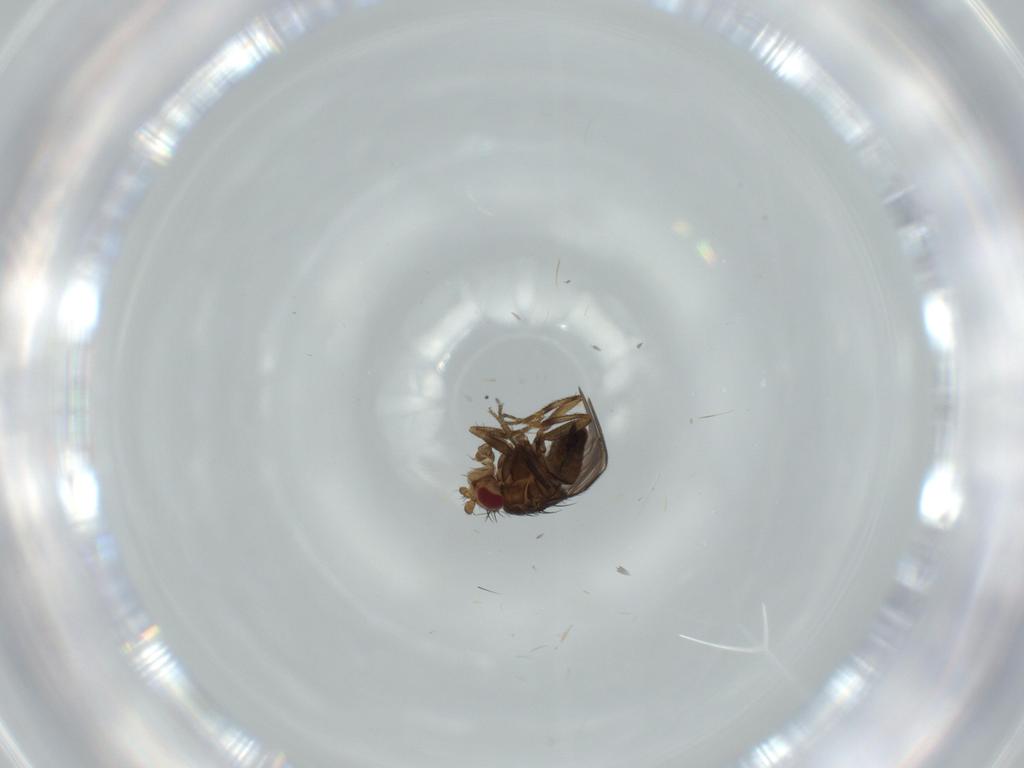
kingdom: Animalia
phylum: Arthropoda
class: Insecta
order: Diptera
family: Sphaeroceridae
